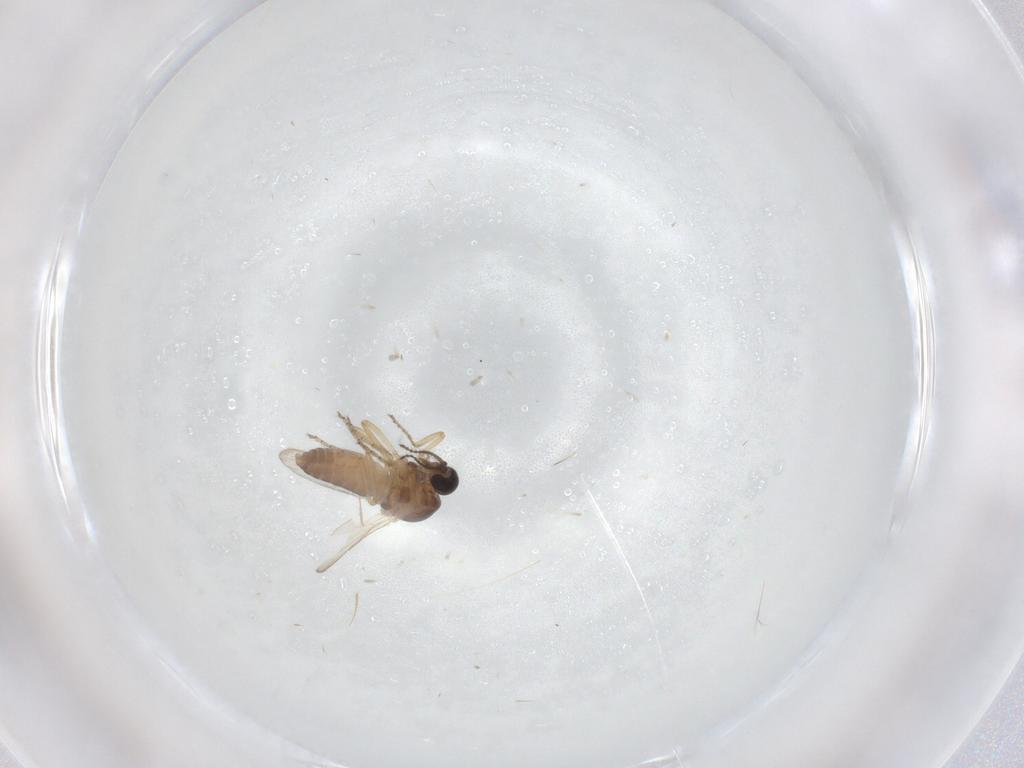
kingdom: Animalia
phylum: Arthropoda
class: Insecta
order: Diptera
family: Ceratopogonidae
